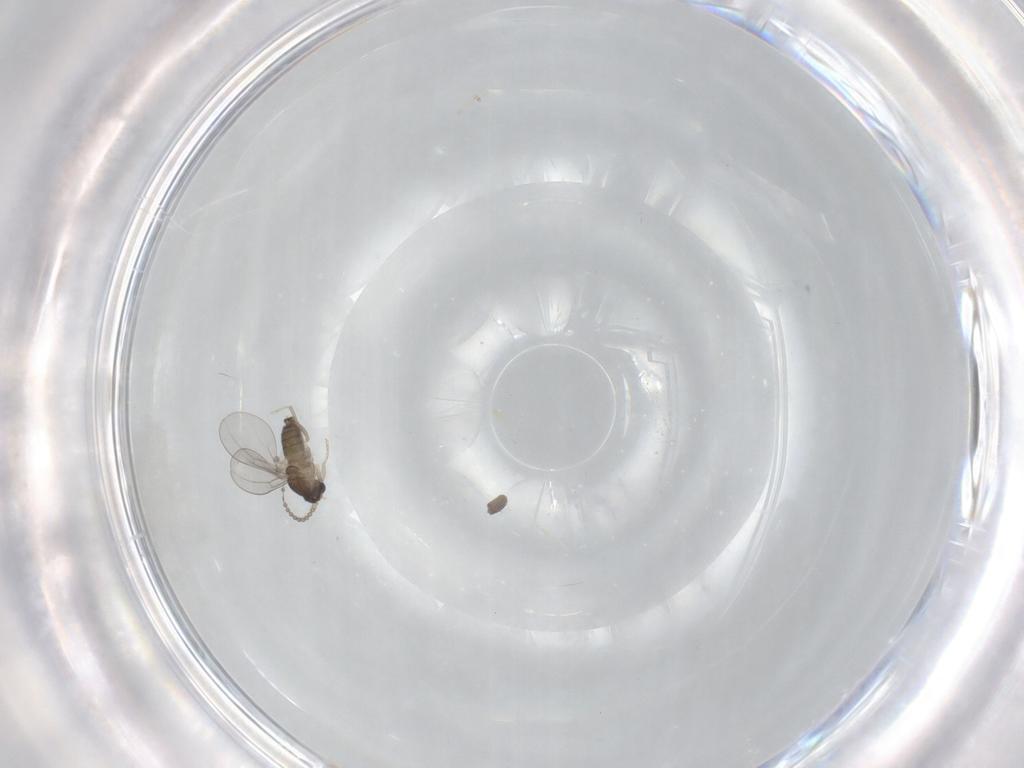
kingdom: Animalia
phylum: Arthropoda
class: Insecta
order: Diptera
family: Cecidomyiidae
